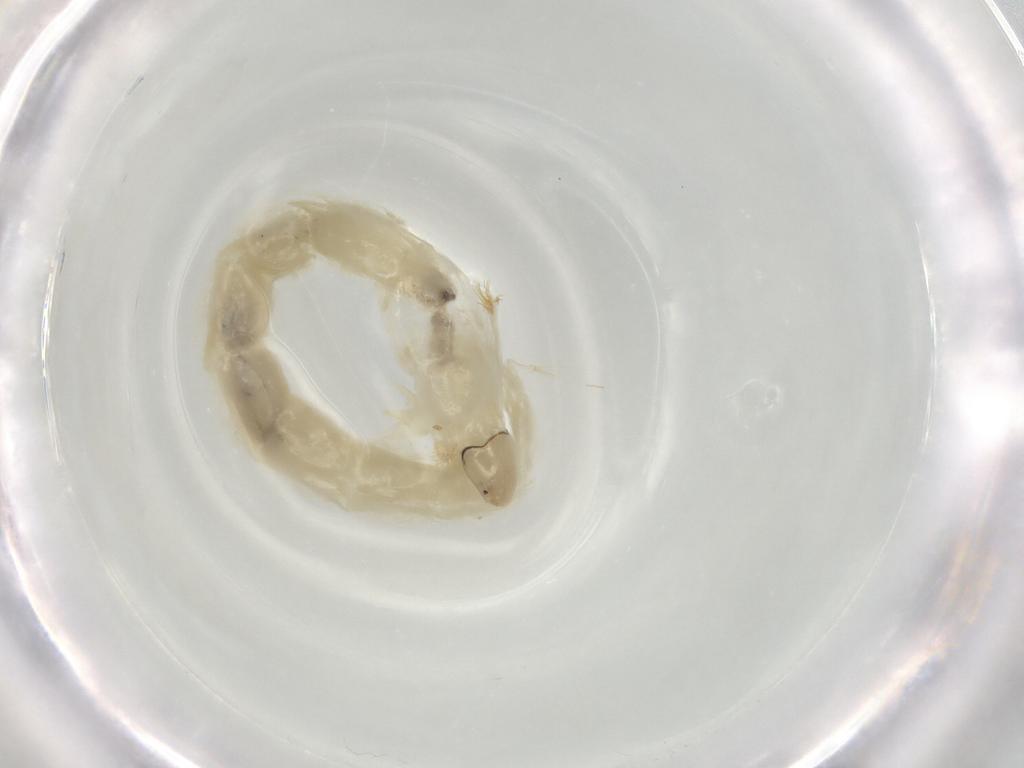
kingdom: Animalia
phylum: Arthropoda
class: Insecta
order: Diptera
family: Chironomidae
